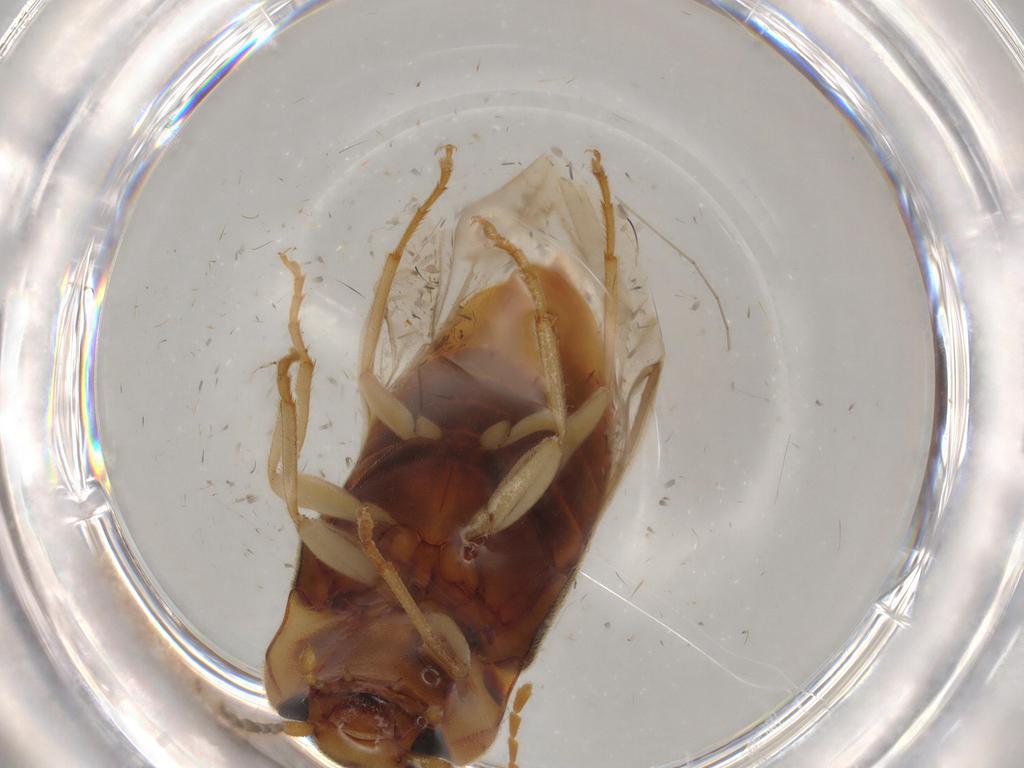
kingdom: Animalia
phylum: Arthropoda
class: Insecta
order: Coleoptera
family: Elateridae
